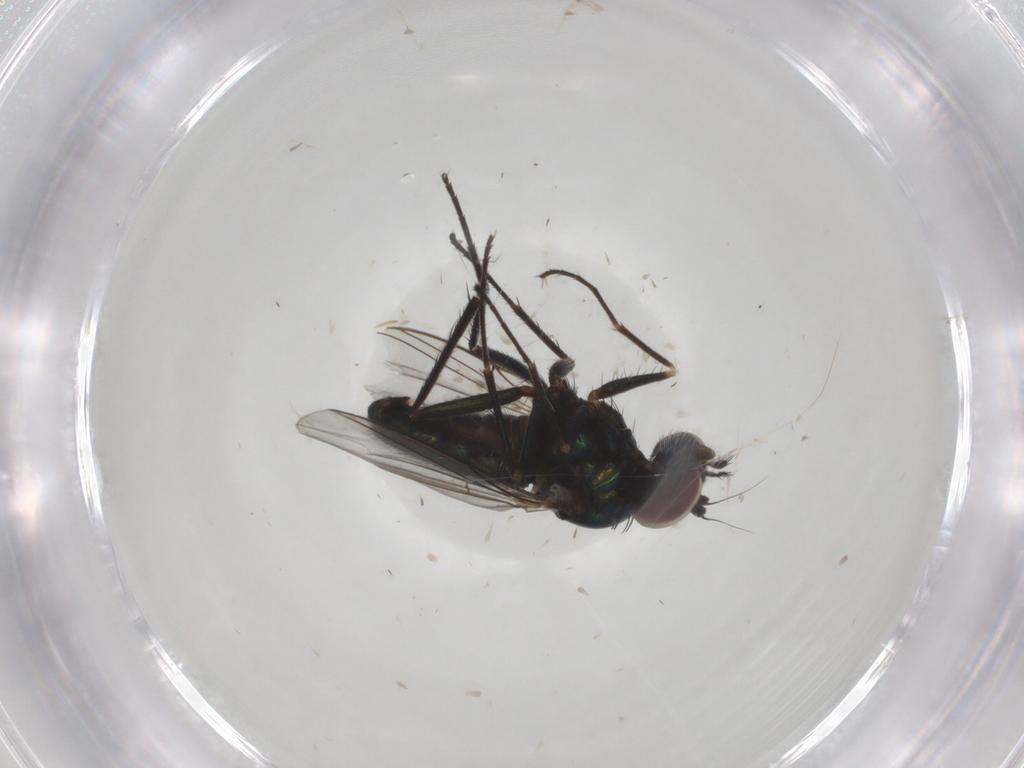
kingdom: Animalia
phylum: Arthropoda
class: Insecta
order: Diptera
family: Dolichopodidae
